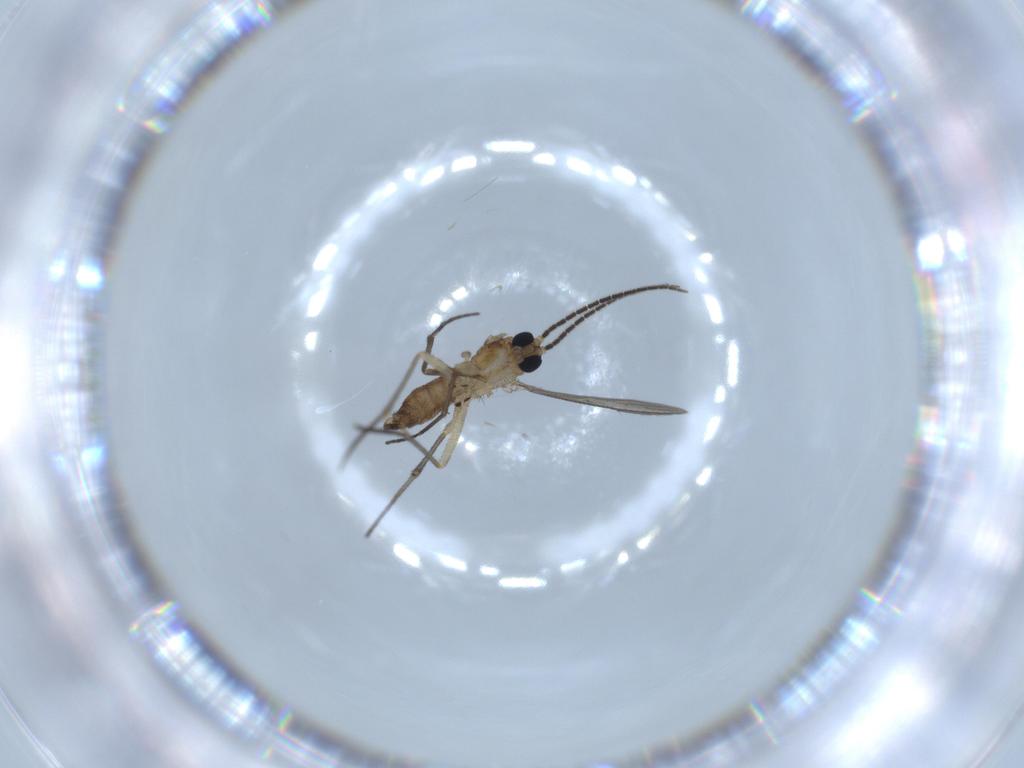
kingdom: Animalia
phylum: Arthropoda
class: Insecta
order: Diptera
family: Sciaridae
